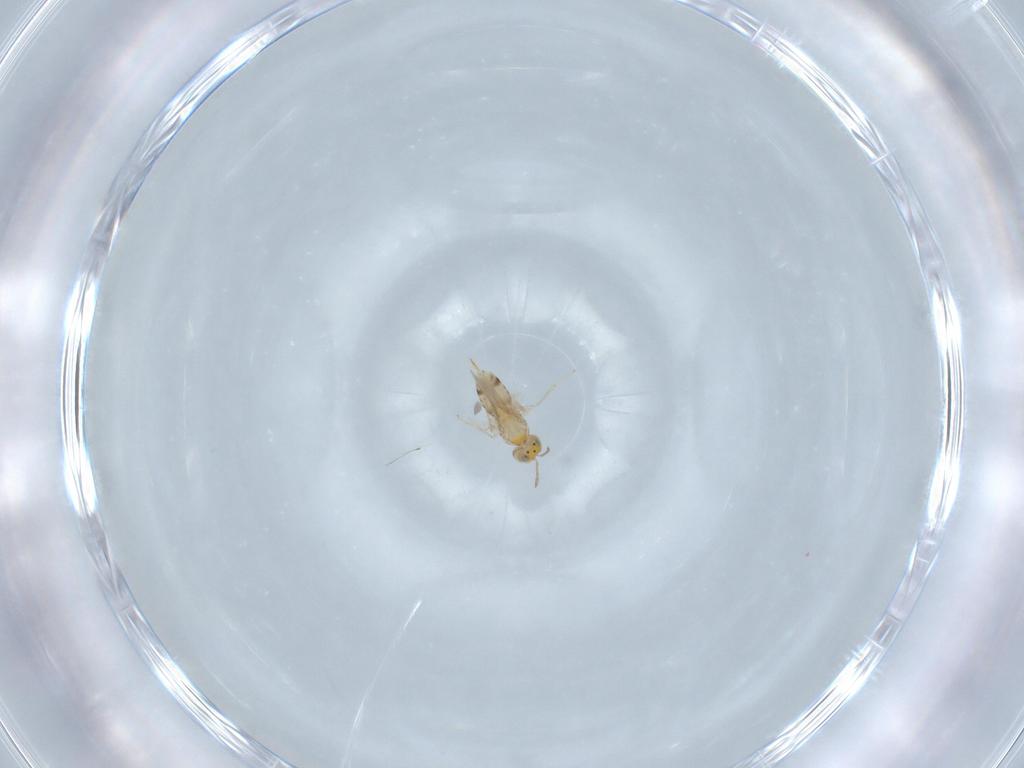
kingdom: Animalia
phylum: Arthropoda
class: Insecta
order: Hymenoptera
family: Aphelinidae
